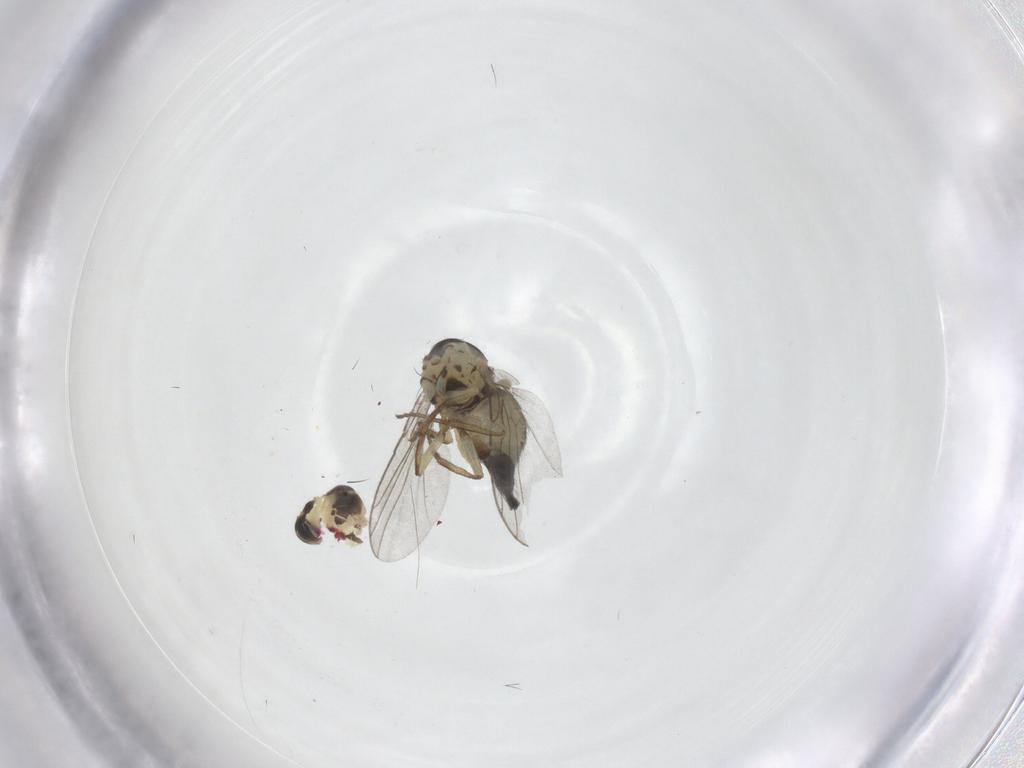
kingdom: Animalia
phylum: Arthropoda
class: Insecta
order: Diptera
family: Agromyzidae
